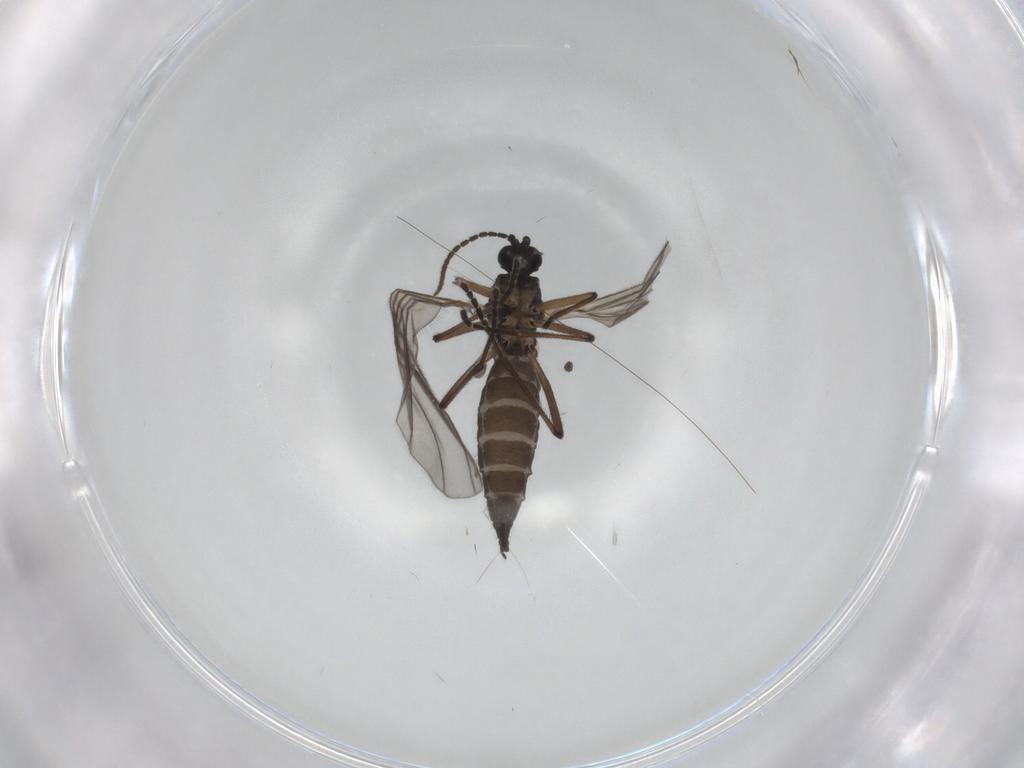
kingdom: Animalia
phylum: Arthropoda
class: Insecta
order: Diptera
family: Sciaridae
